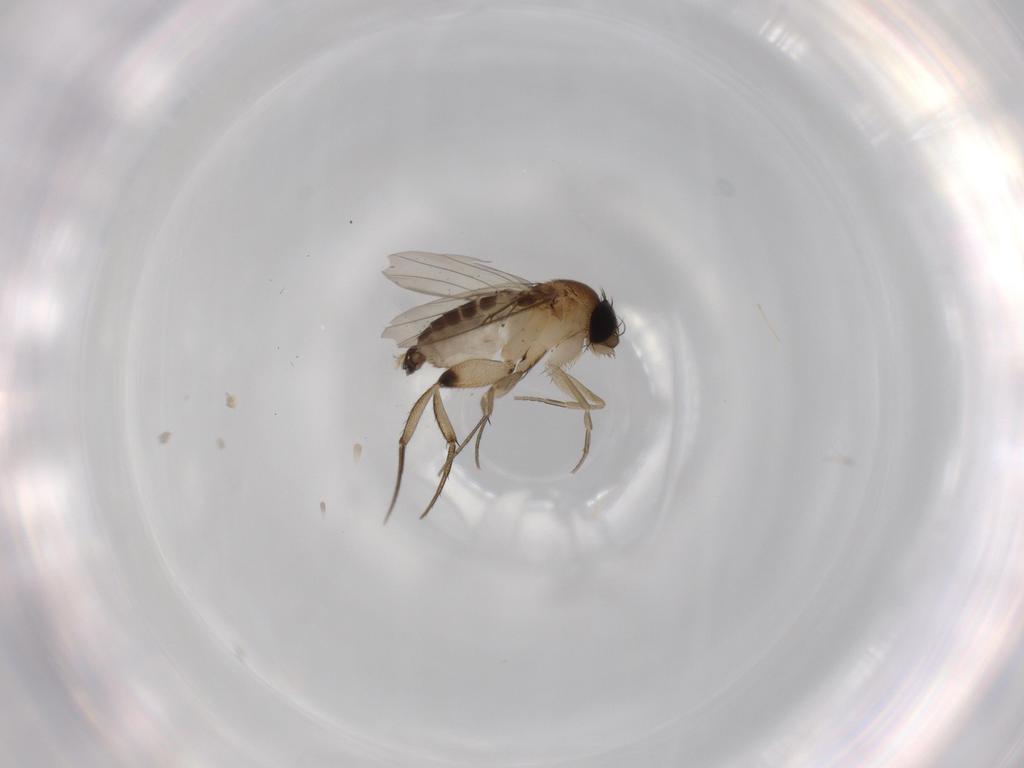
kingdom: Animalia
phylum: Arthropoda
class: Insecta
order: Diptera
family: Phoridae
